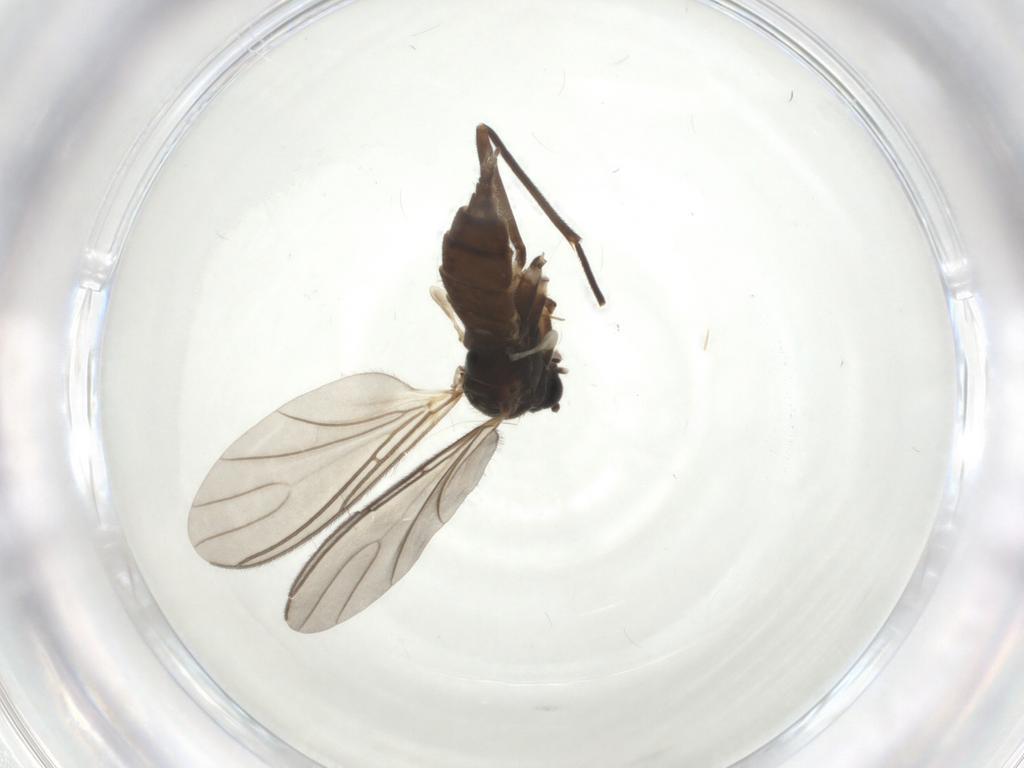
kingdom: Animalia
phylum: Arthropoda
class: Insecta
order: Diptera
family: Sciaridae
